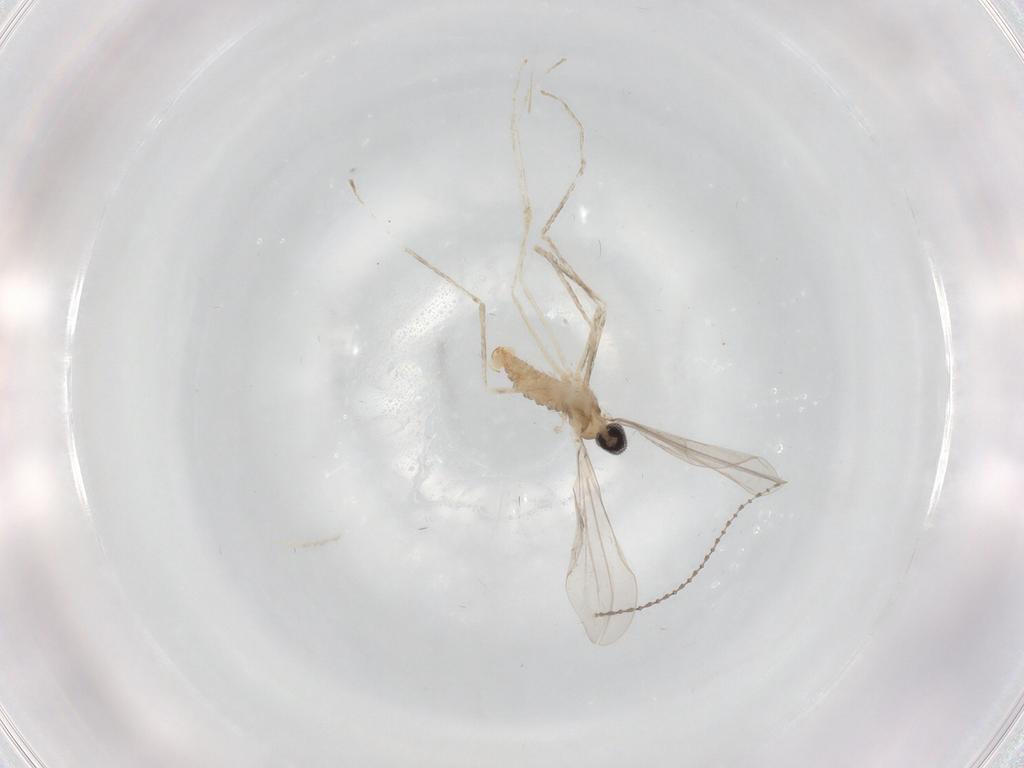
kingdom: Animalia
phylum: Arthropoda
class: Insecta
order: Diptera
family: Cecidomyiidae
